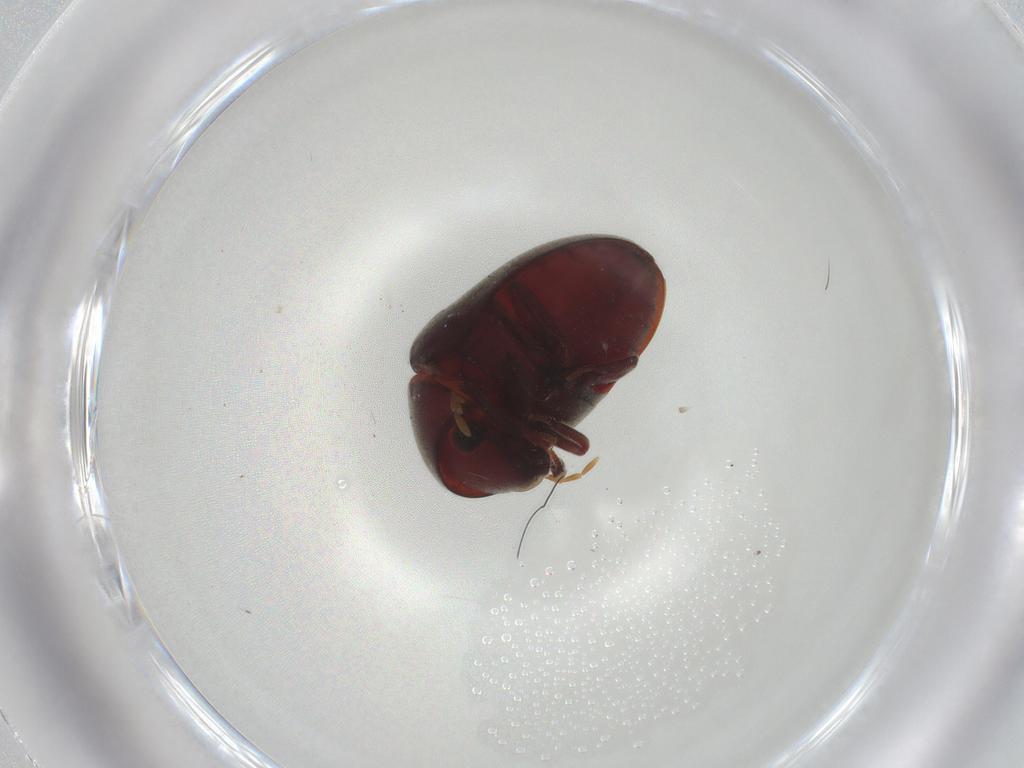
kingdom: Animalia
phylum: Arthropoda
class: Insecta
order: Coleoptera
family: Ptinidae
